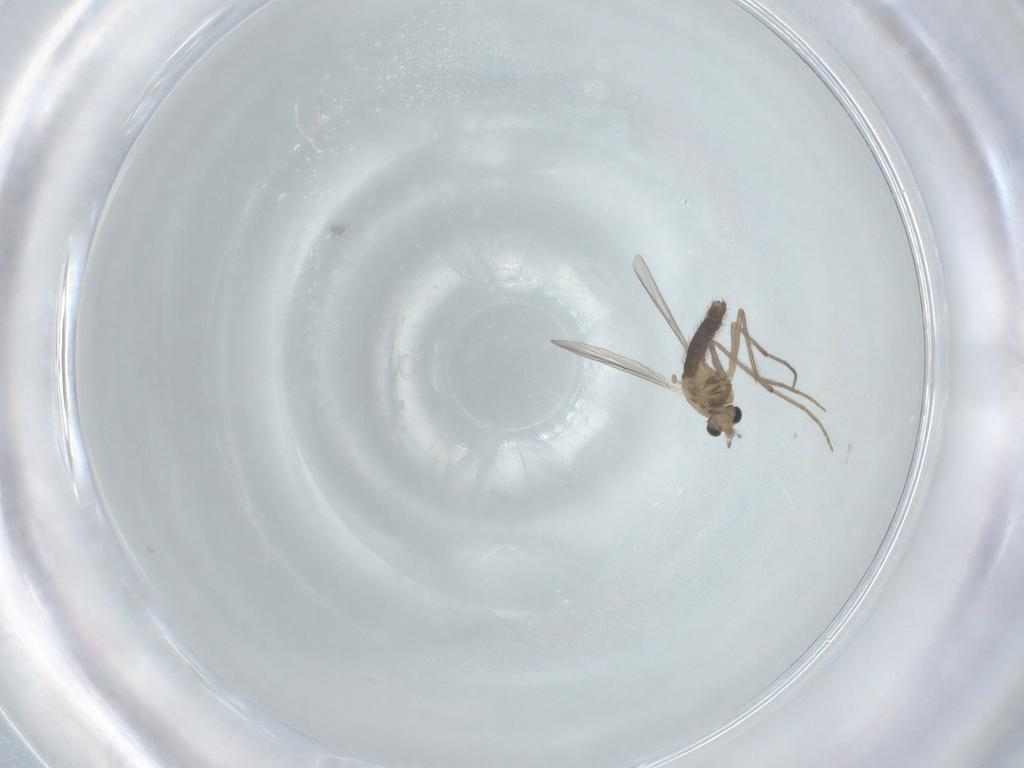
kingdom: Animalia
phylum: Arthropoda
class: Insecta
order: Diptera
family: Chironomidae
